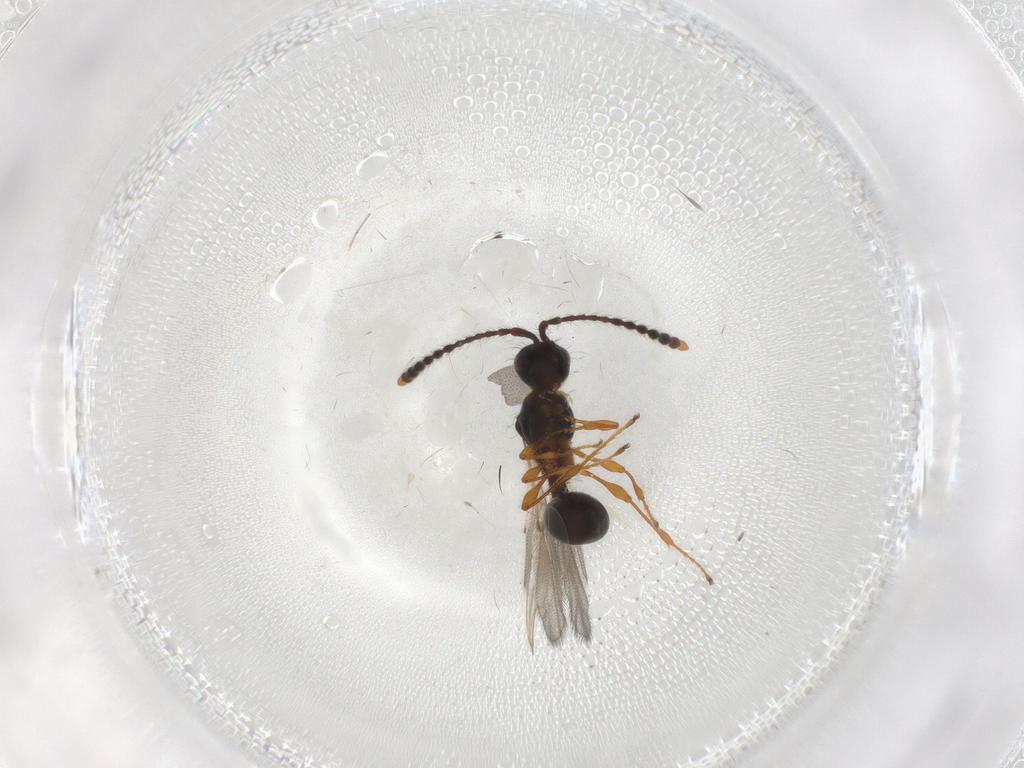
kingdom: Animalia
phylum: Arthropoda
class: Insecta
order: Hymenoptera
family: Diapriidae
